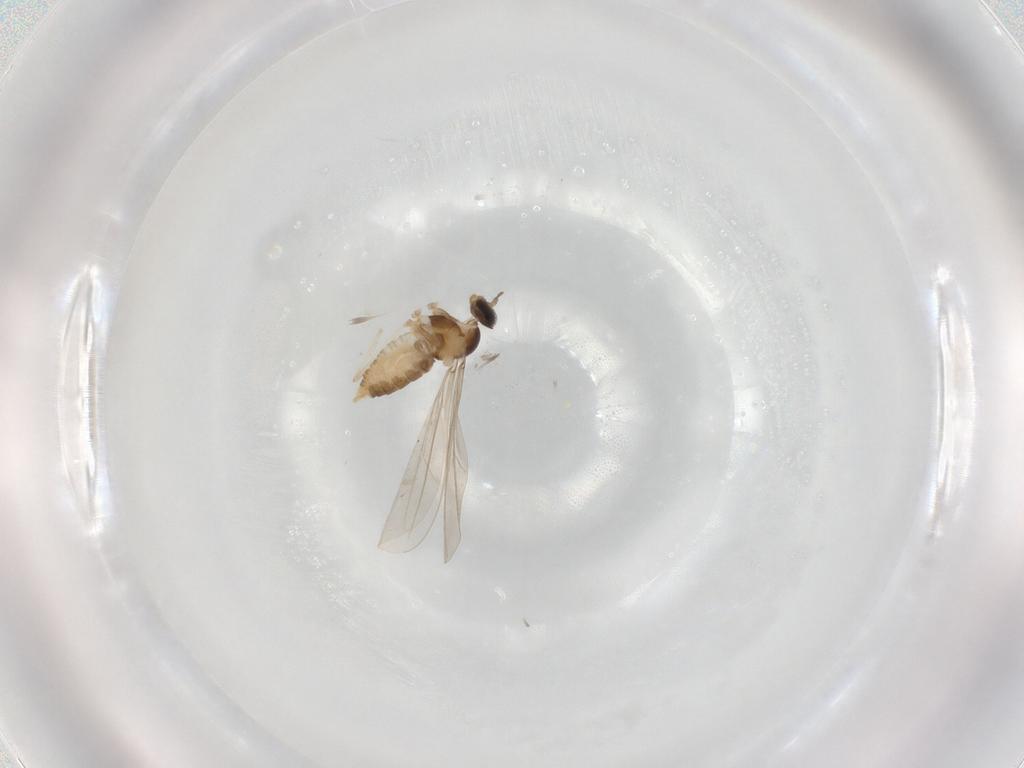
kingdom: Animalia
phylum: Arthropoda
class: Insecta
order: Diptera
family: Cecidomyiidae
